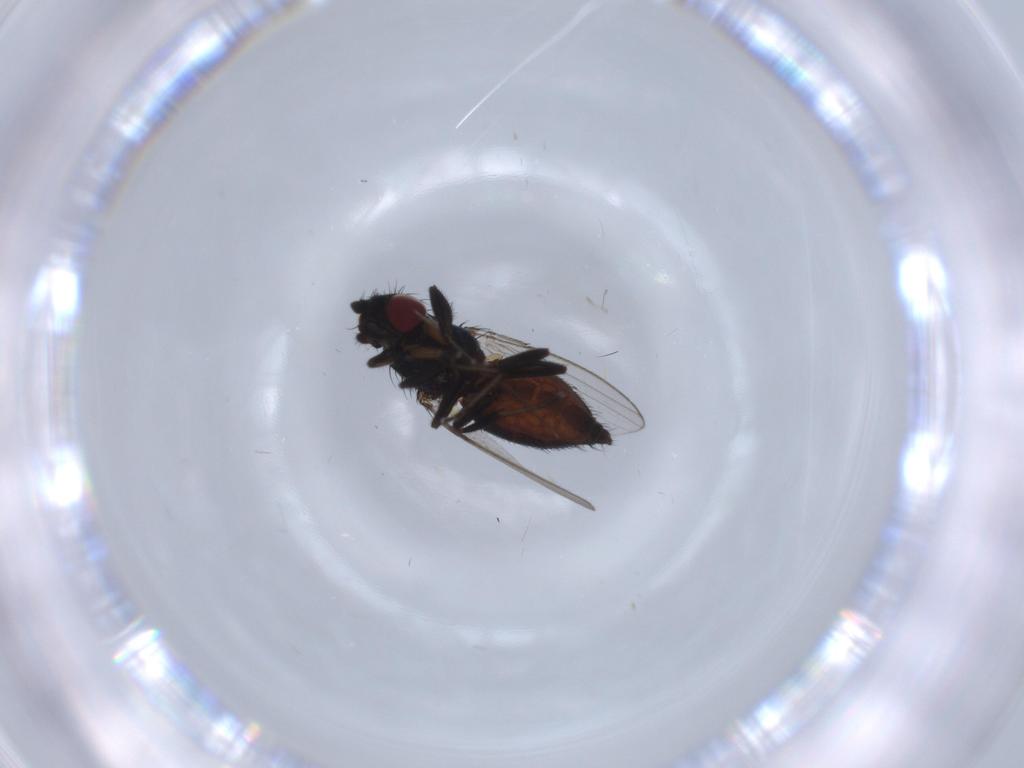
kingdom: Animalia
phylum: Arthropoda
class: Insecta
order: Diptera
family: Milichiidae
